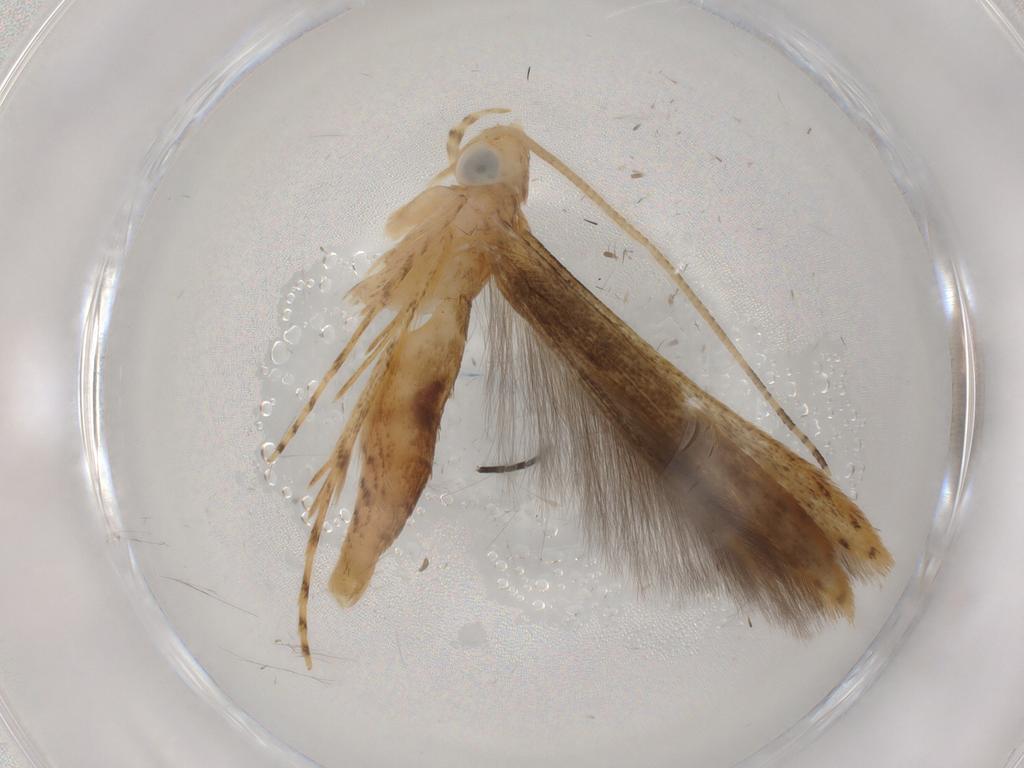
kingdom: Animalia
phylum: Arthropoda
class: Insecta
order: Lepidoptera
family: Batrachedridae
